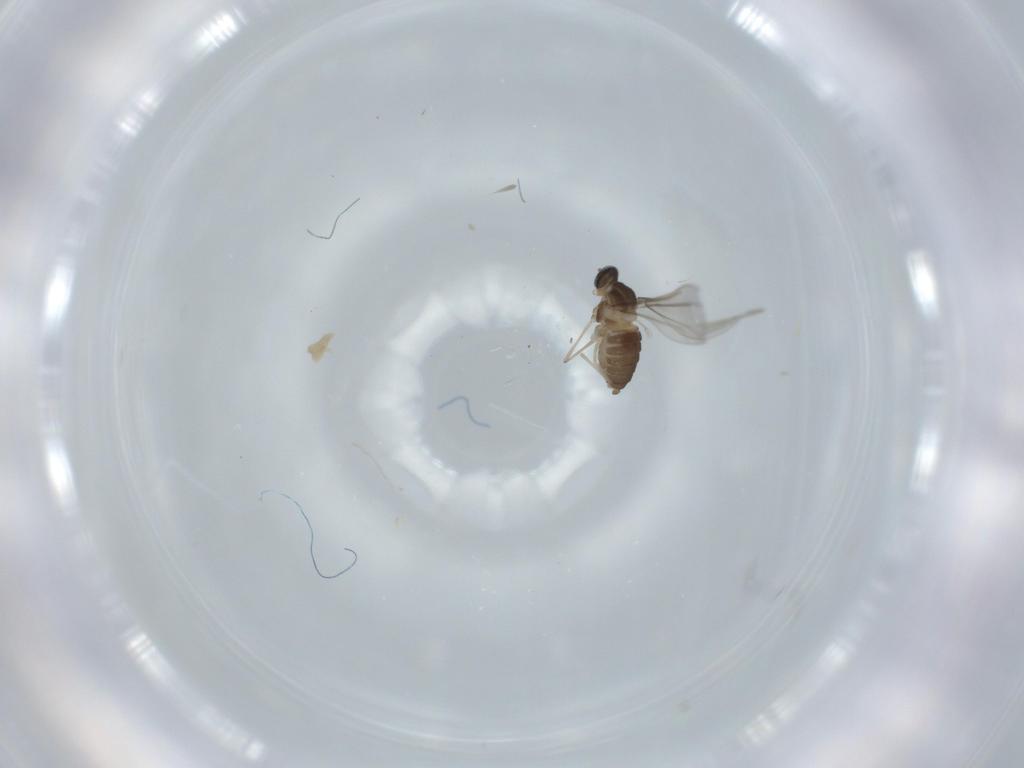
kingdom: Animalia
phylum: Arthropoda
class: Insecta
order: Diptera
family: Cecidomyiidae
